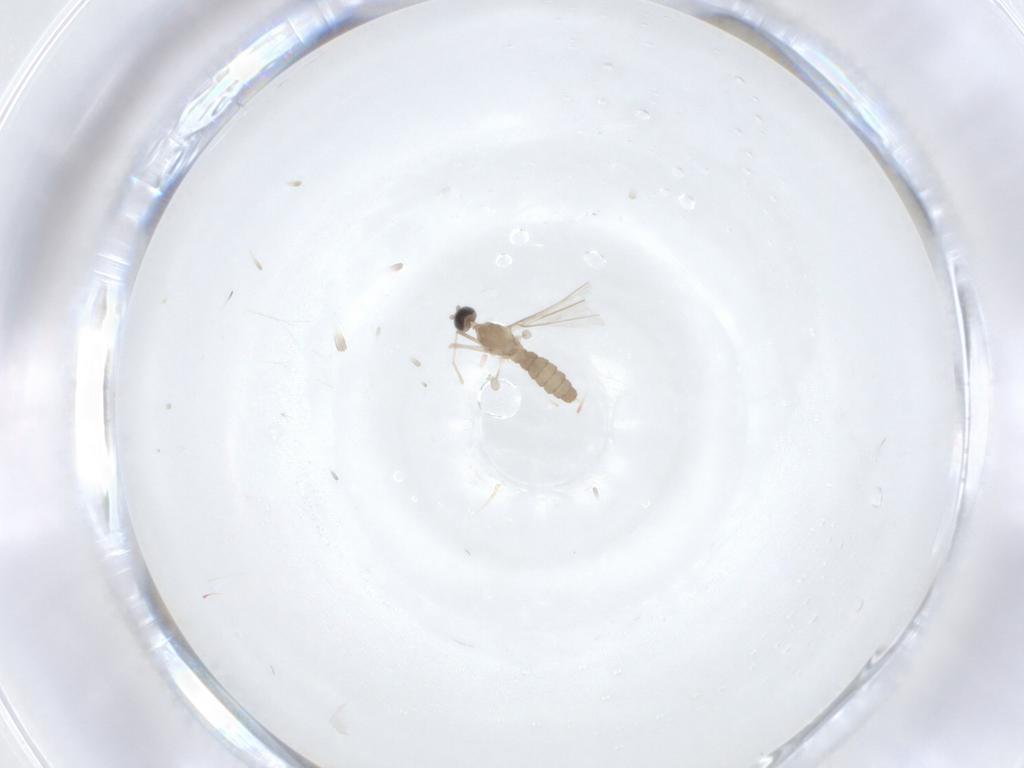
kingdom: Animalia
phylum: Arthropoda
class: Insecta
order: Diptera
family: Cecidomyiidae
